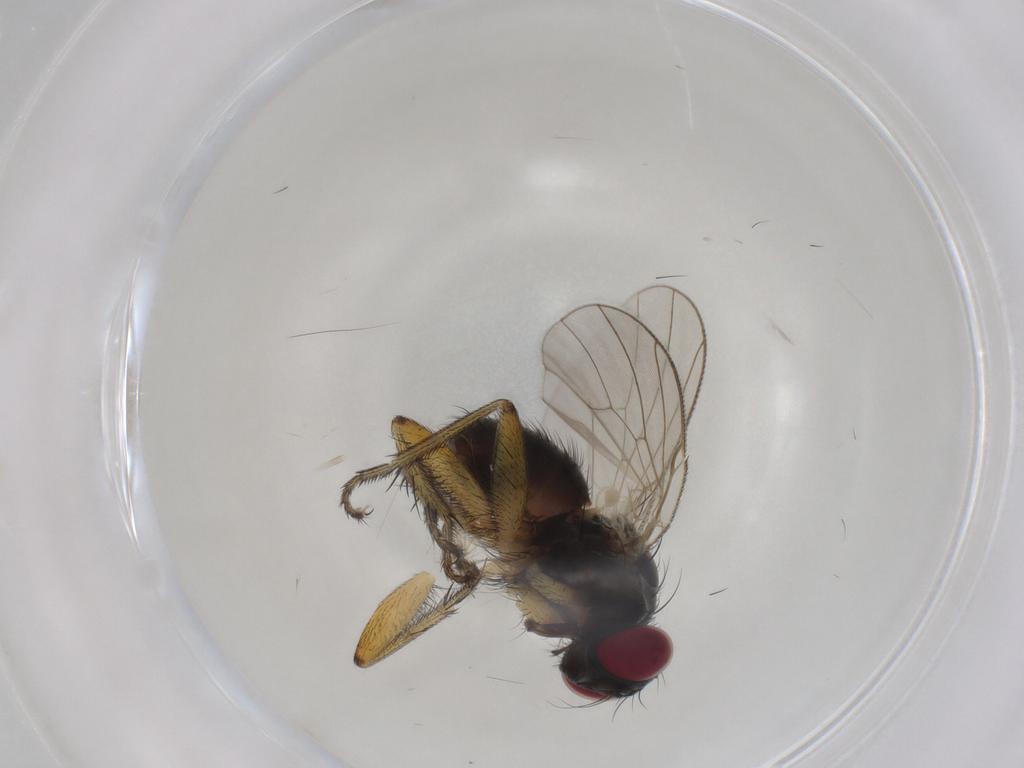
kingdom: Animalia
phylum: Arthropoda
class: Insecta
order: Diptera
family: Muscidae
